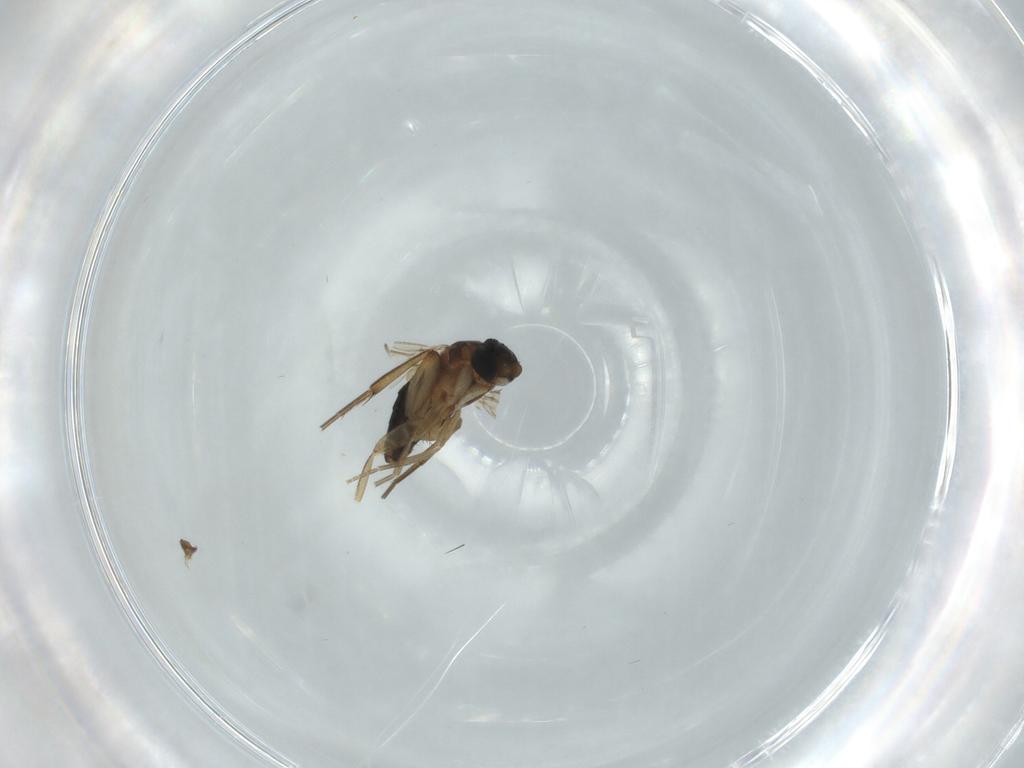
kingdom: Animalia
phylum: Arthropoda
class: Insecta
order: Diptera
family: Phoridae
